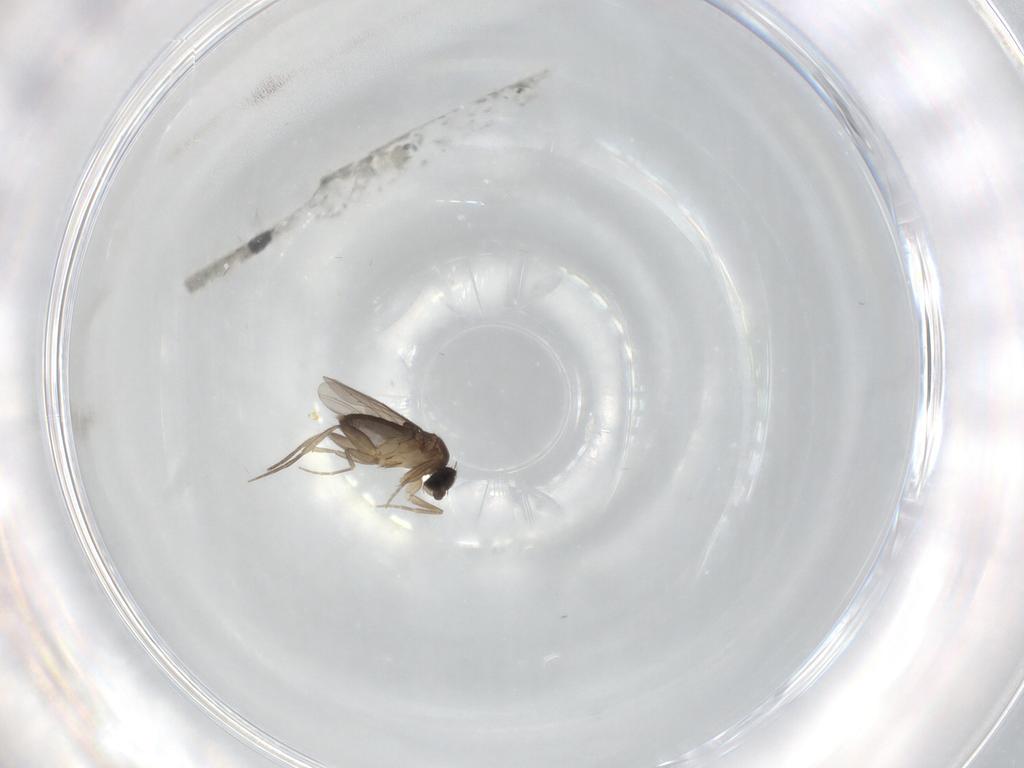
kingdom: Animalia
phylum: Arthropoda
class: Insecta
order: Diptera
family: Phoridae
